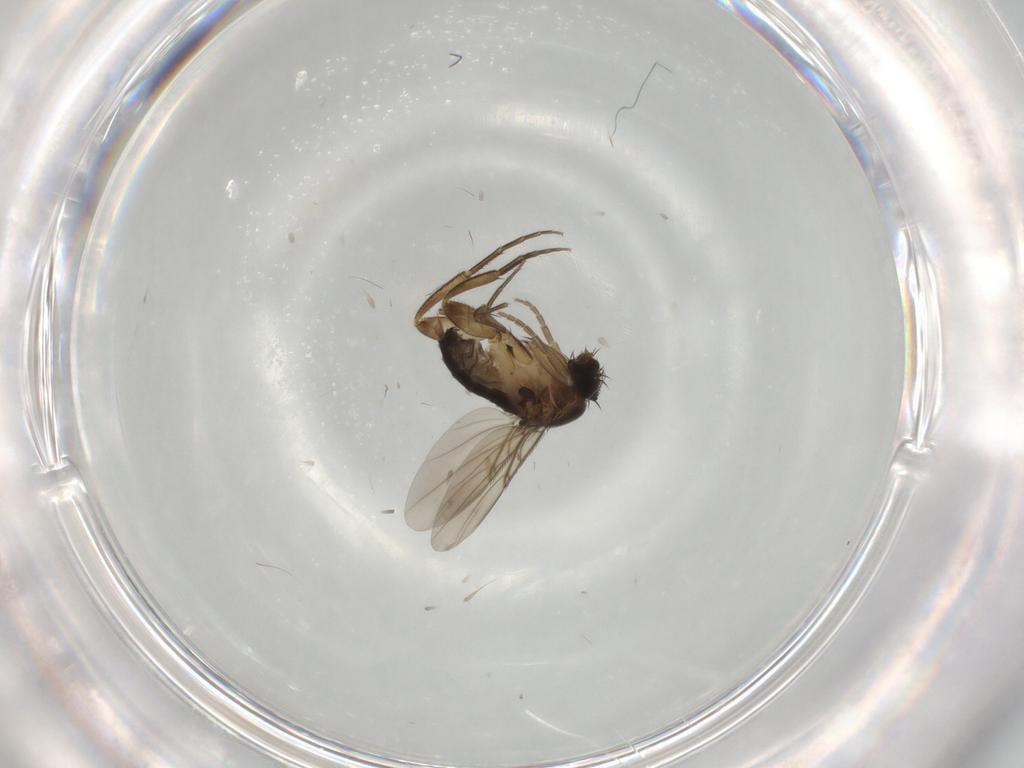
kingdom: Animalia
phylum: Arthropoda
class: Insecta
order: Diptera
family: Phoridae
